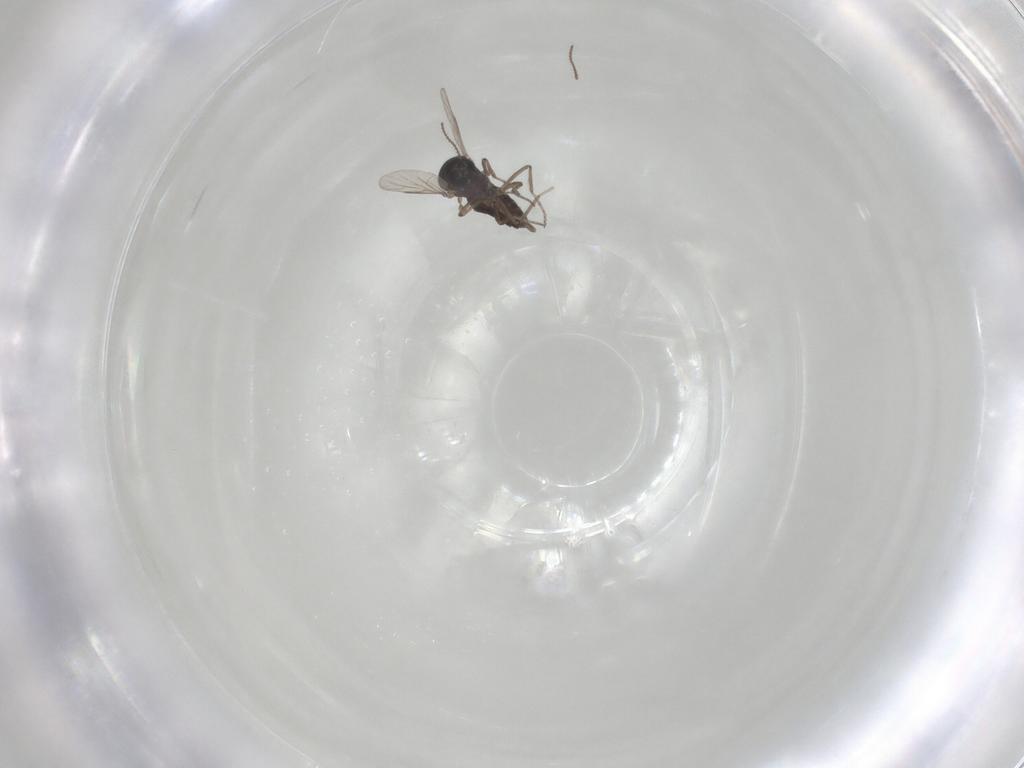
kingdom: Animalia
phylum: Arthropoda
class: Insecta
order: Diptera
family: Ceratopogonidae
